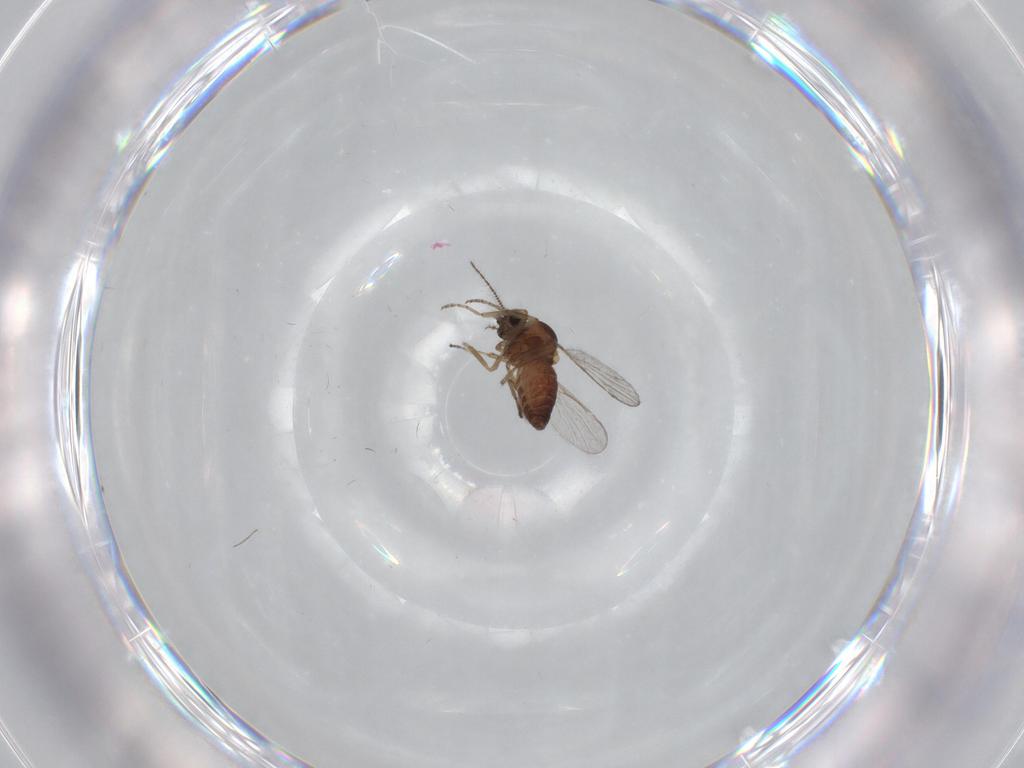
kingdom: Animalia
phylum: Arthropoda
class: Insecta
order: Diptera
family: Ceratopogonidae
